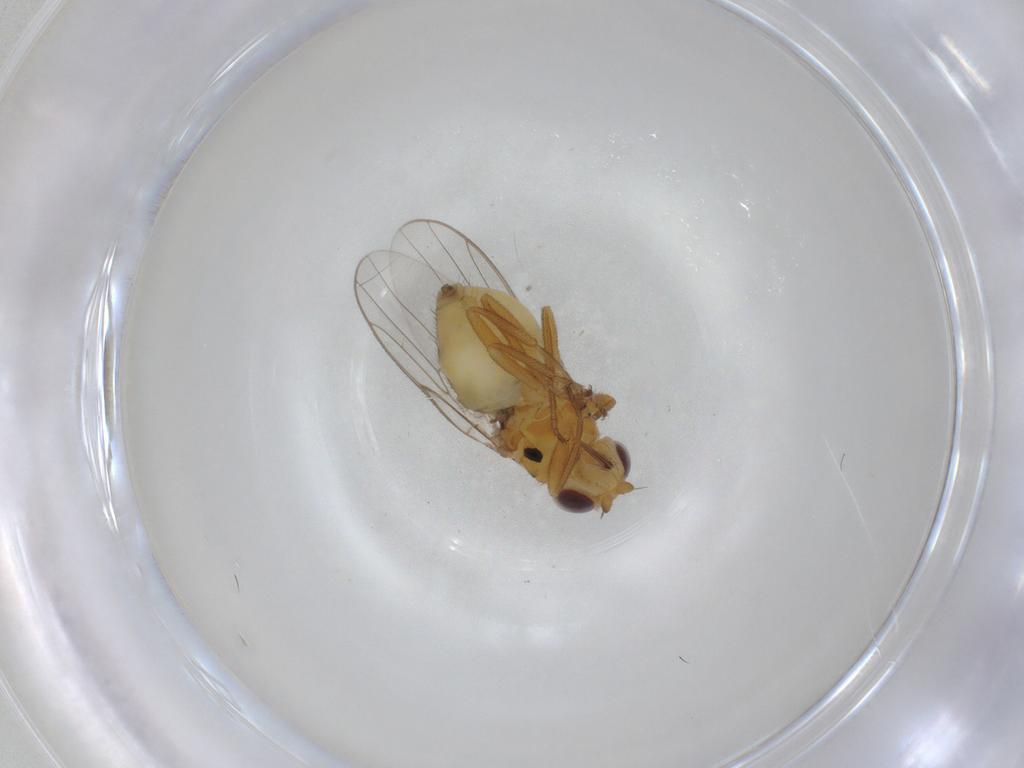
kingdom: Animalia
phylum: Arthropoda
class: Insecta
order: Diptera
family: Chloropidae
